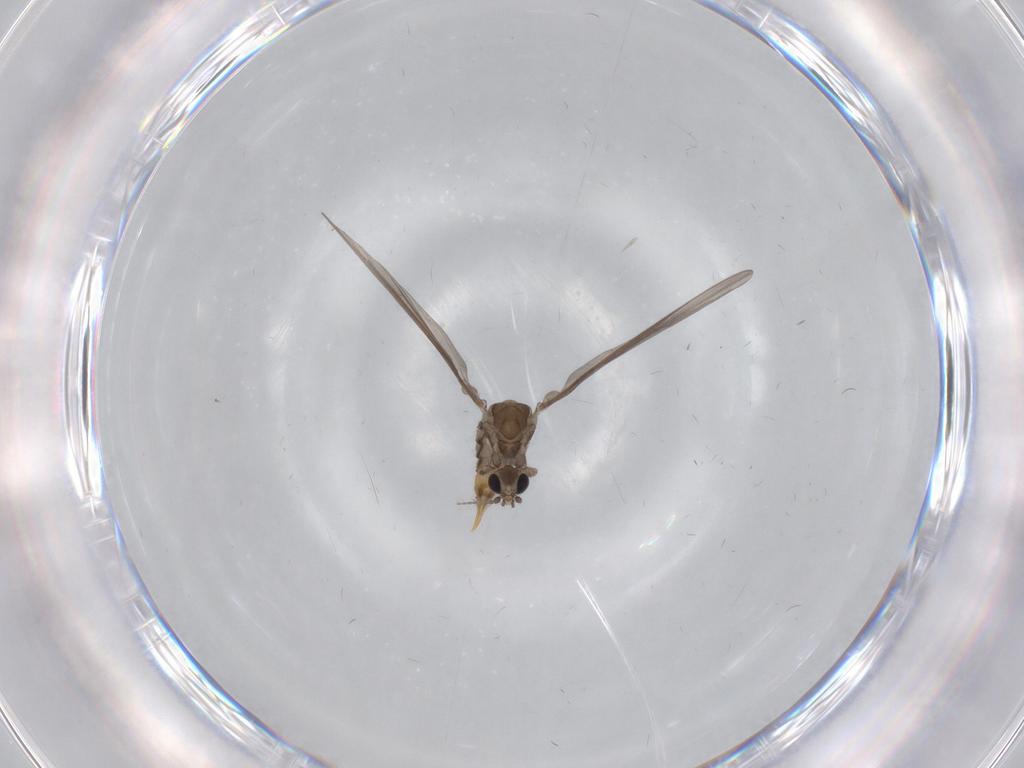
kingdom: Animalia
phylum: Arthropoda
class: Insecta
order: Diptera
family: Limoniidae
